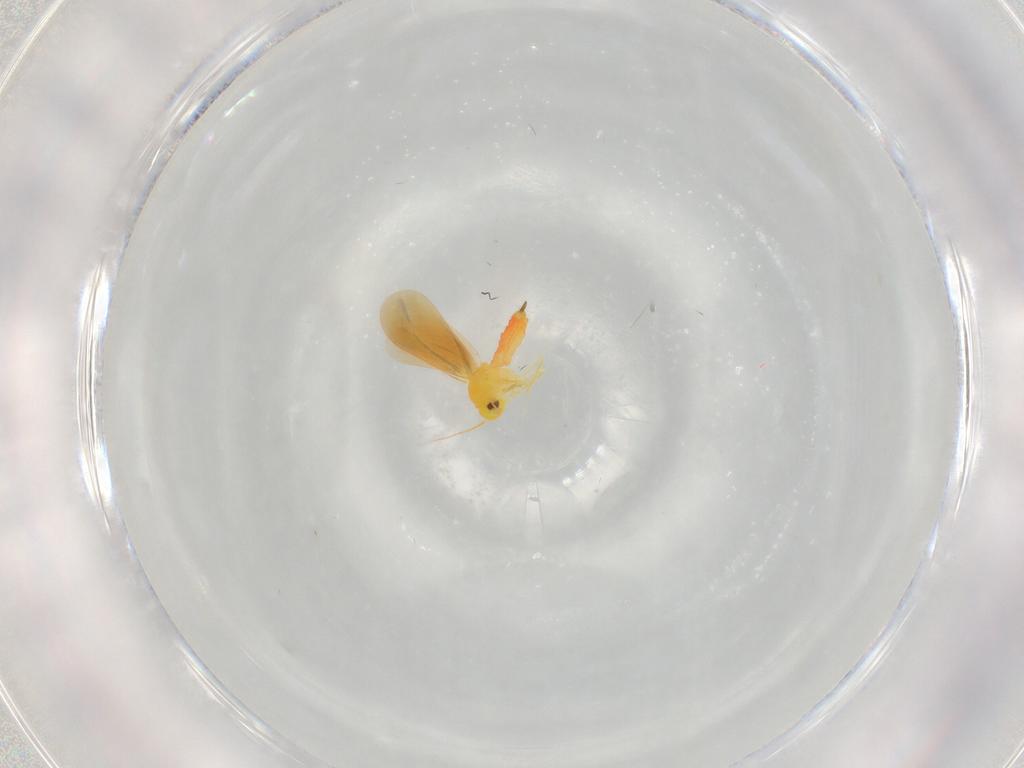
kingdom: Animalia
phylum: Arthropoda
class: Insecta
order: Hemiptera
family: Aleyrodidae
